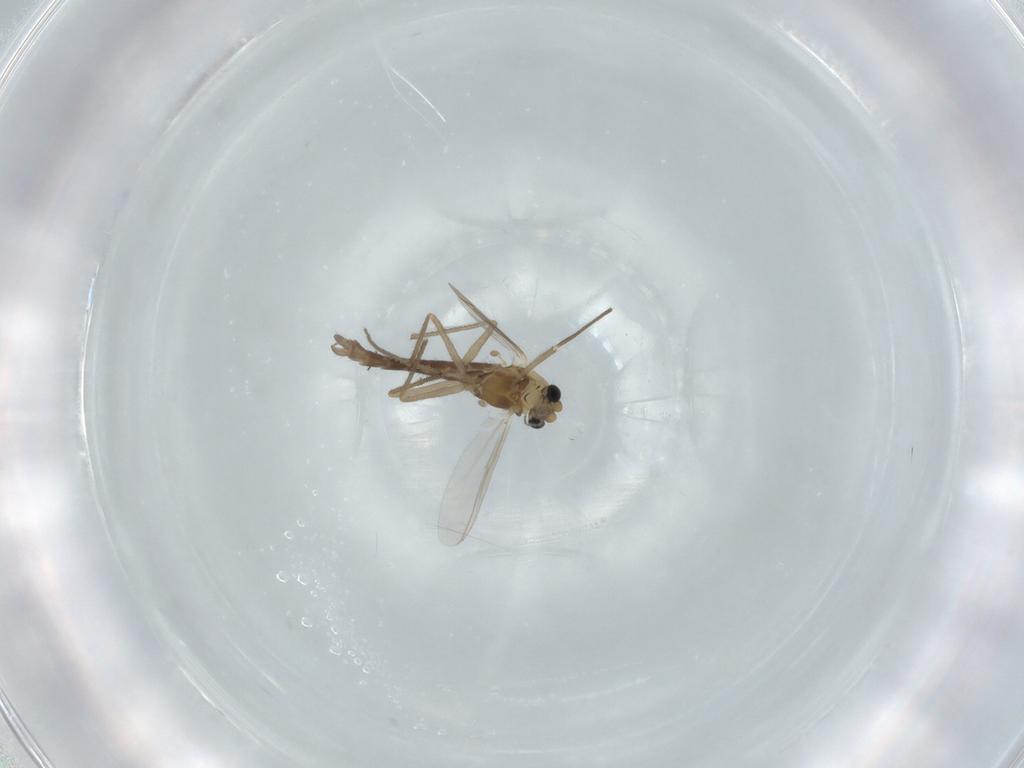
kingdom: Animalia
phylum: Arthropoda
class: Insecta
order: Diptera
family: Chironomidae
